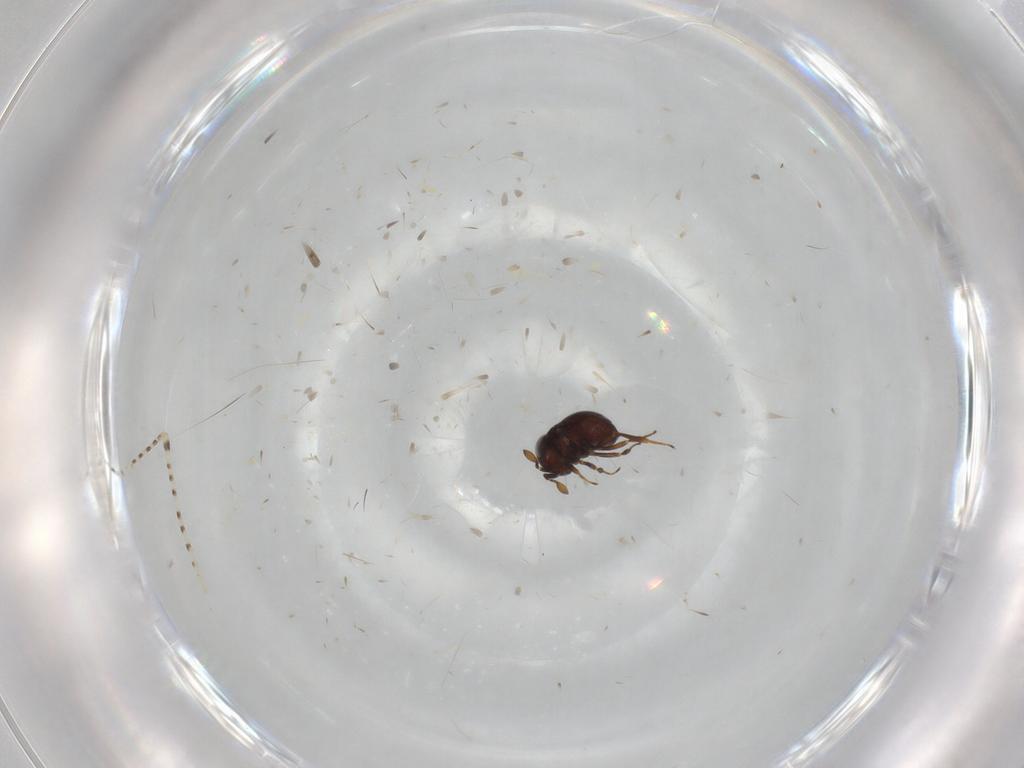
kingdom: Animalia
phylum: Arthropoda
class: Insecta
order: Hymenoptera
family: Scelionidae
